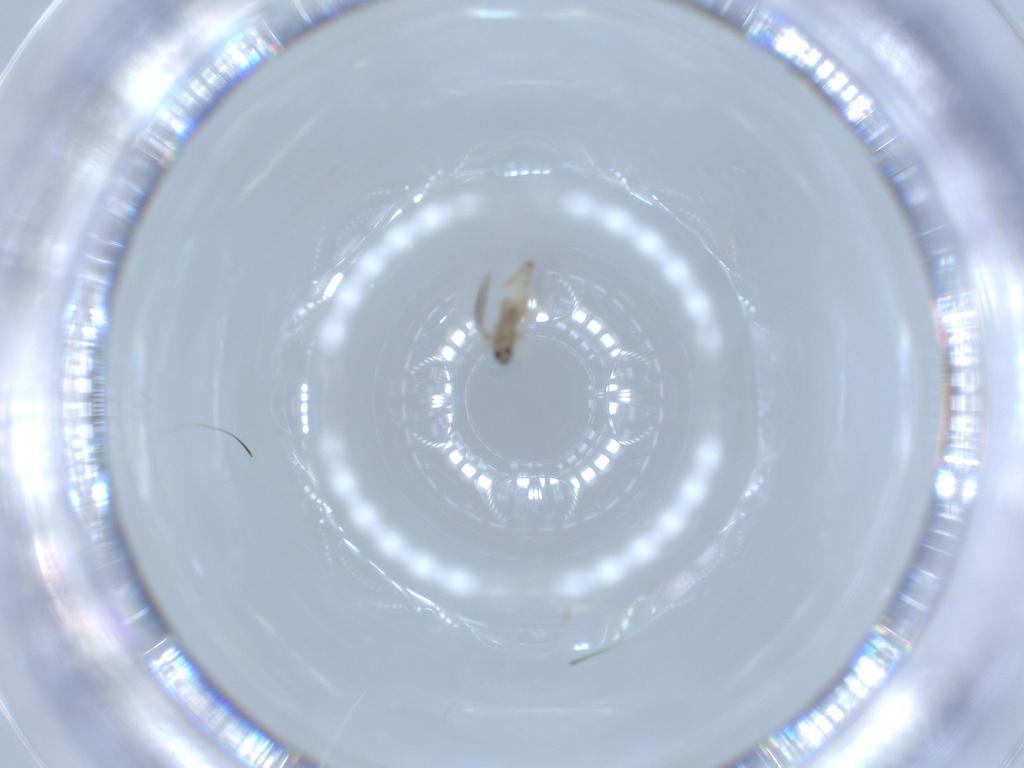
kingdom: Animalia
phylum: Arthropoda
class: Insecta
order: Diptera
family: Cecidomyiidae
